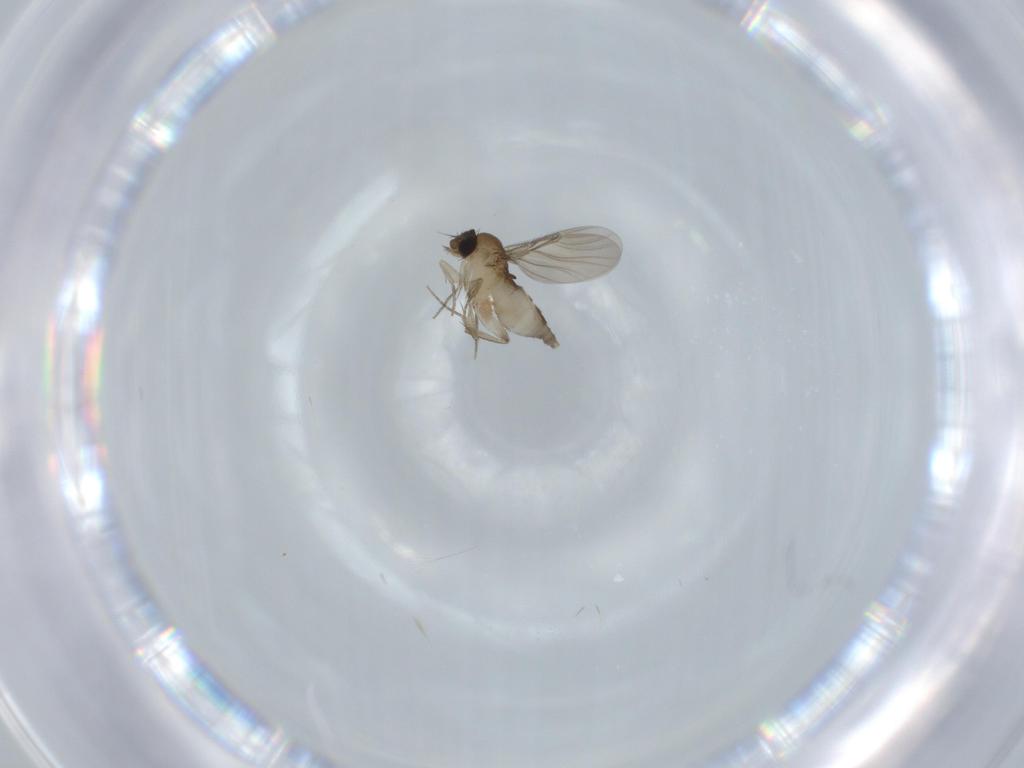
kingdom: Animalia
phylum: Arthropoda
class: Insecta
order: Diptera
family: Phoridae
